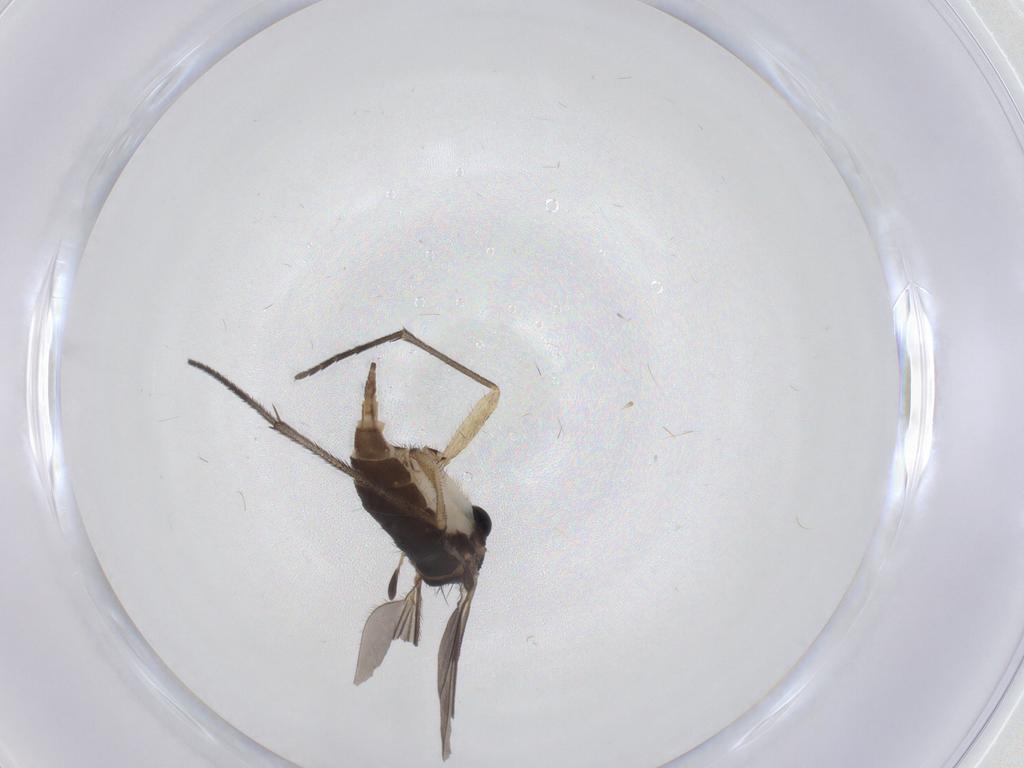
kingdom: Animalia
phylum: Arthropoda
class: Insecta
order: Diptera
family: Sciaridae
